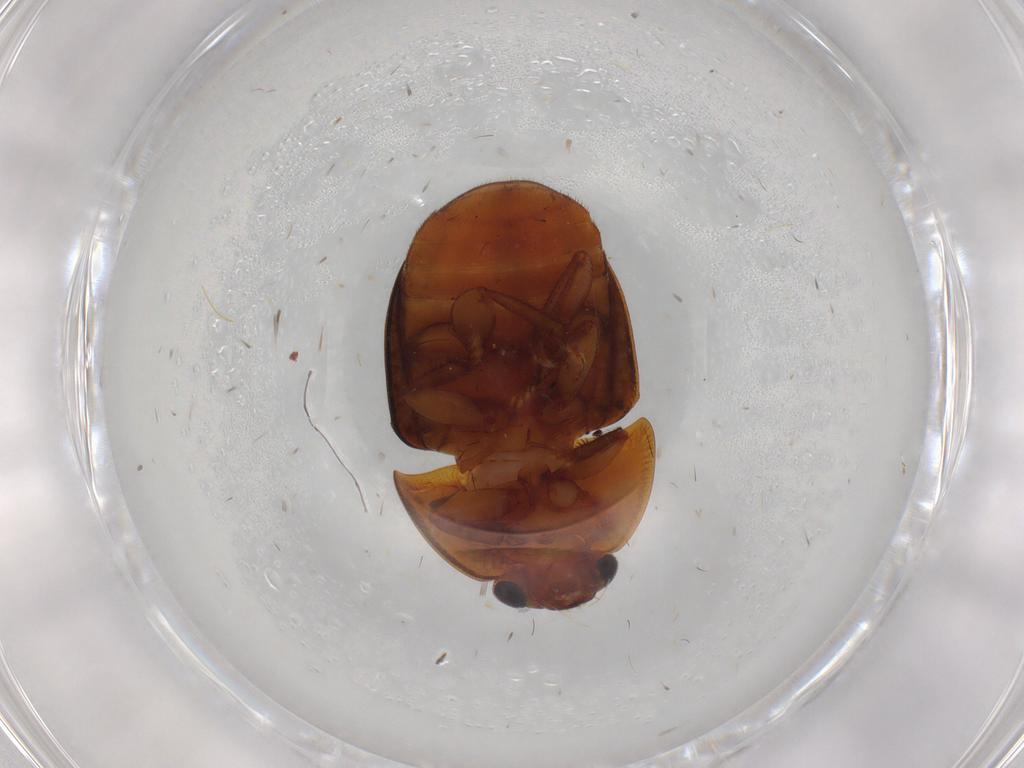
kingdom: Animalia
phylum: Arthropoda
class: Insecta
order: Coleoptera
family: Nitidulidae
